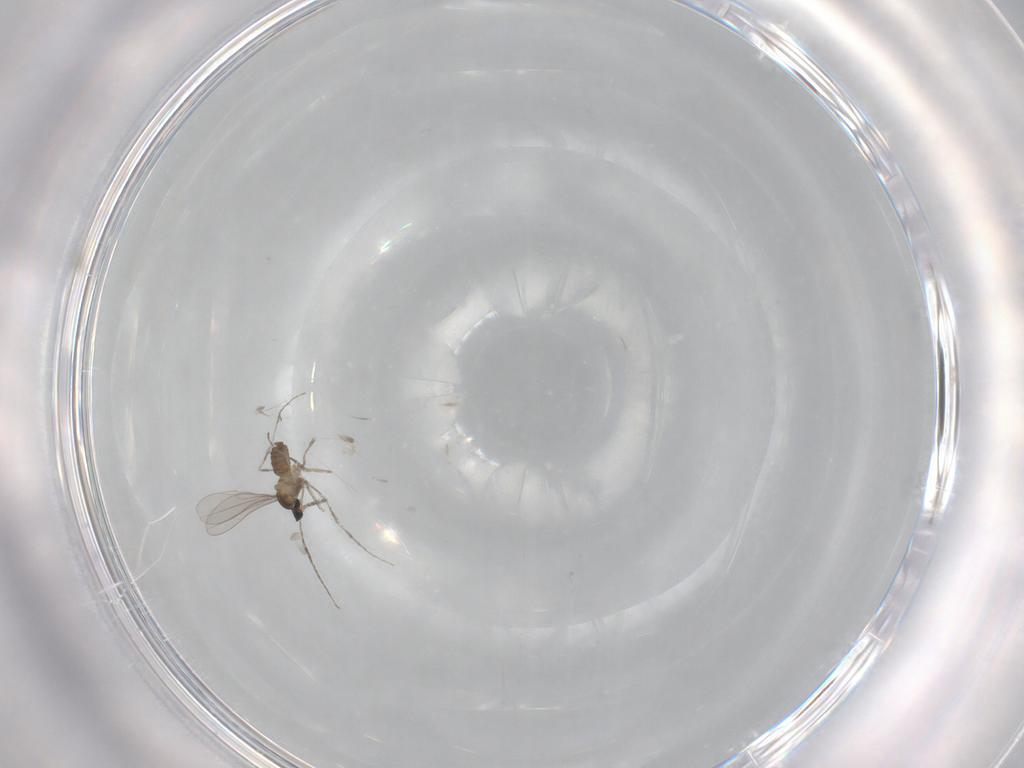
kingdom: Animalia
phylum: Arthropoda
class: Insecta
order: Diptera
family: Cecidomyiidae
